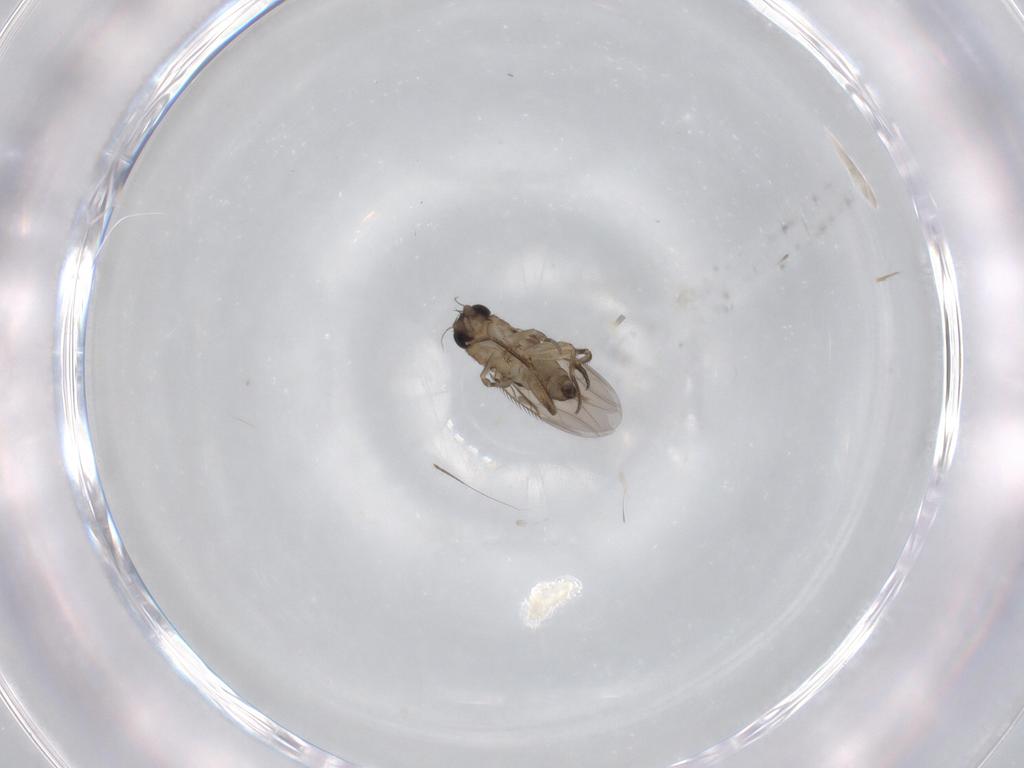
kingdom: Animalia
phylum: Arthropoda
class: Insecta
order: Diptera
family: Phoridae
